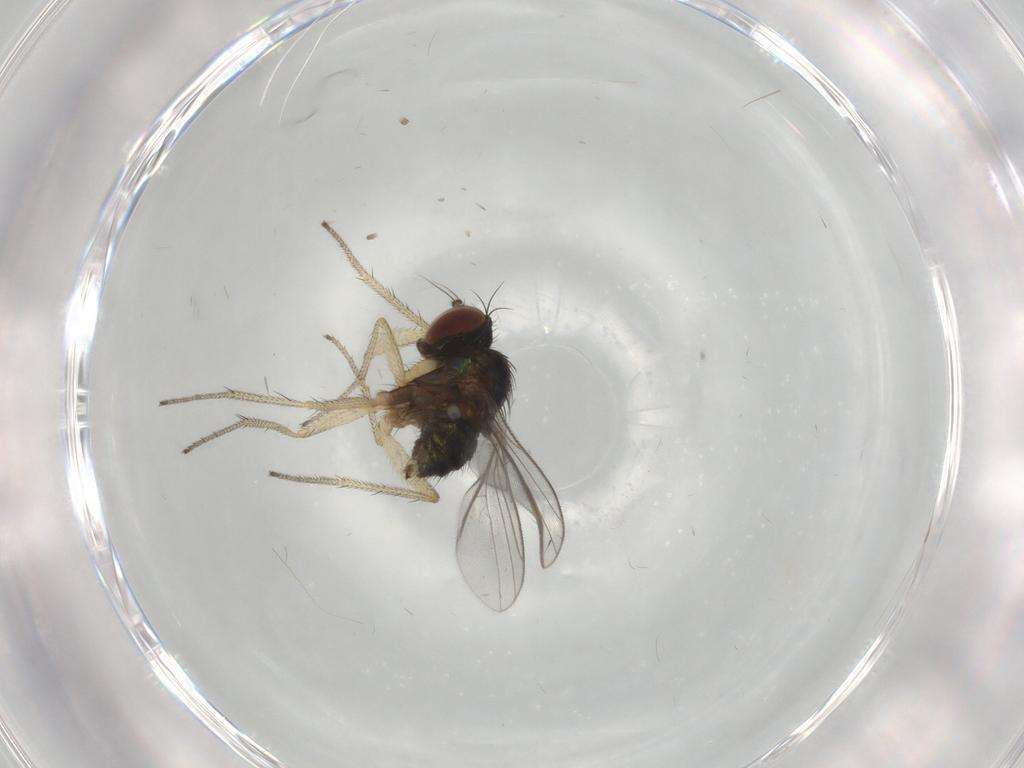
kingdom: Animalia
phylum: Arthropoda
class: Insecta
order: Diptera
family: Dolichopodidae
